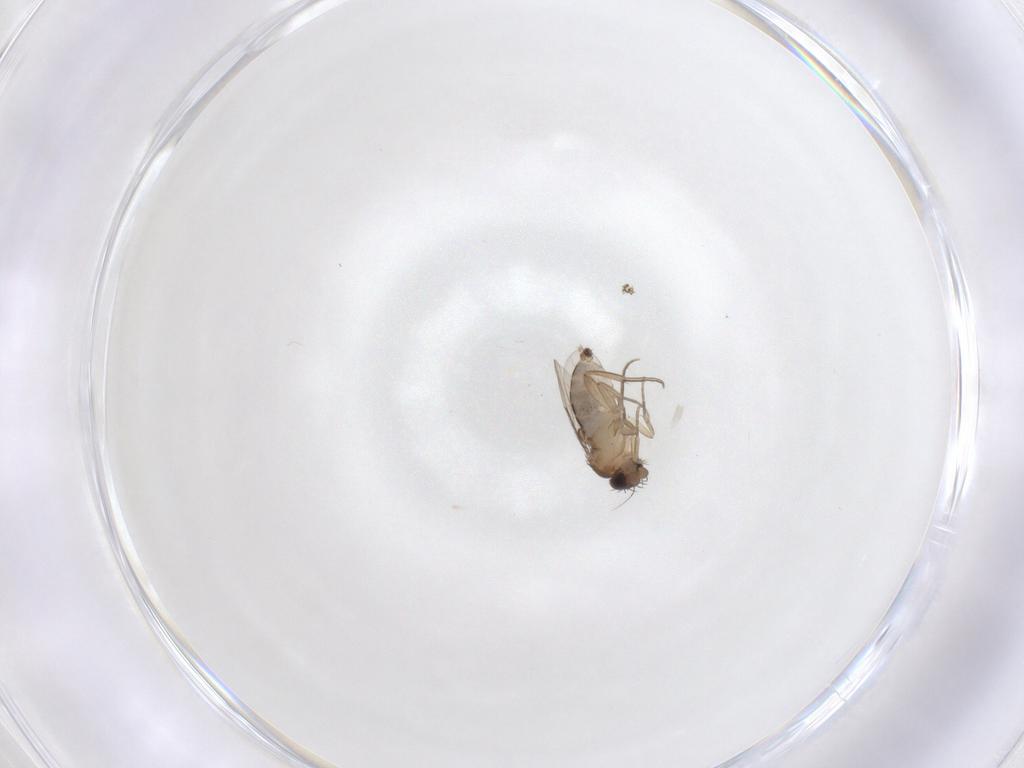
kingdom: Animalia
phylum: Arthropoda
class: Insecta
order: Diptera
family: Phoridae
